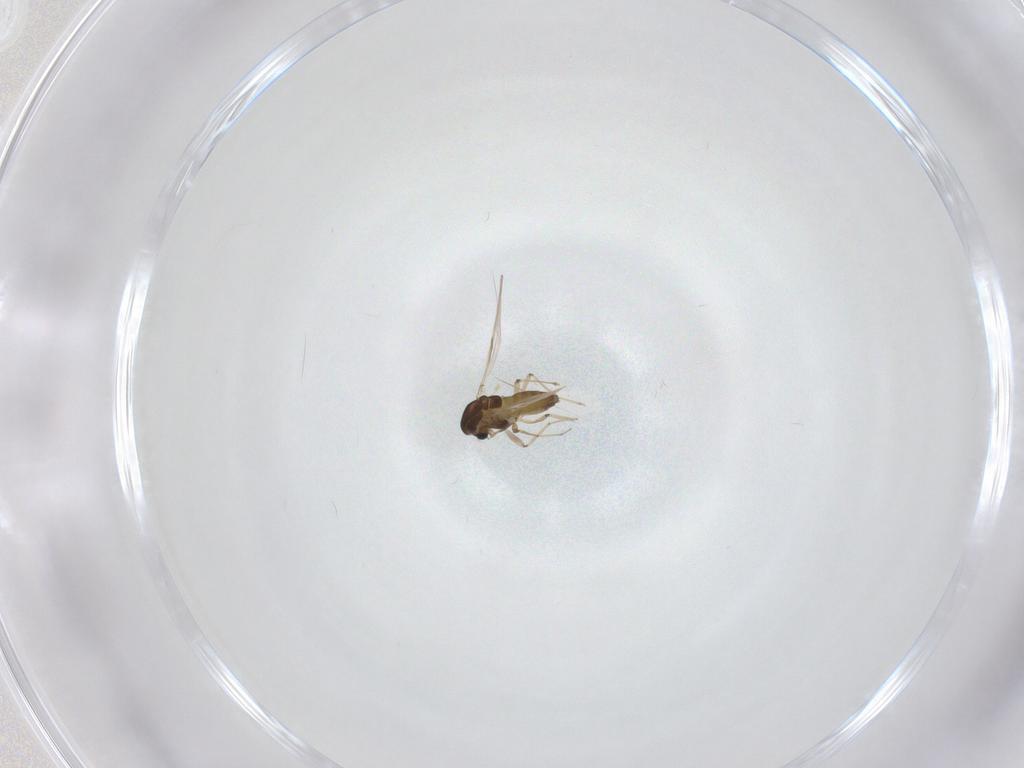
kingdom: Animalia
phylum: Arthropoda
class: Insecta
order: Diptera
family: Chironomidae
